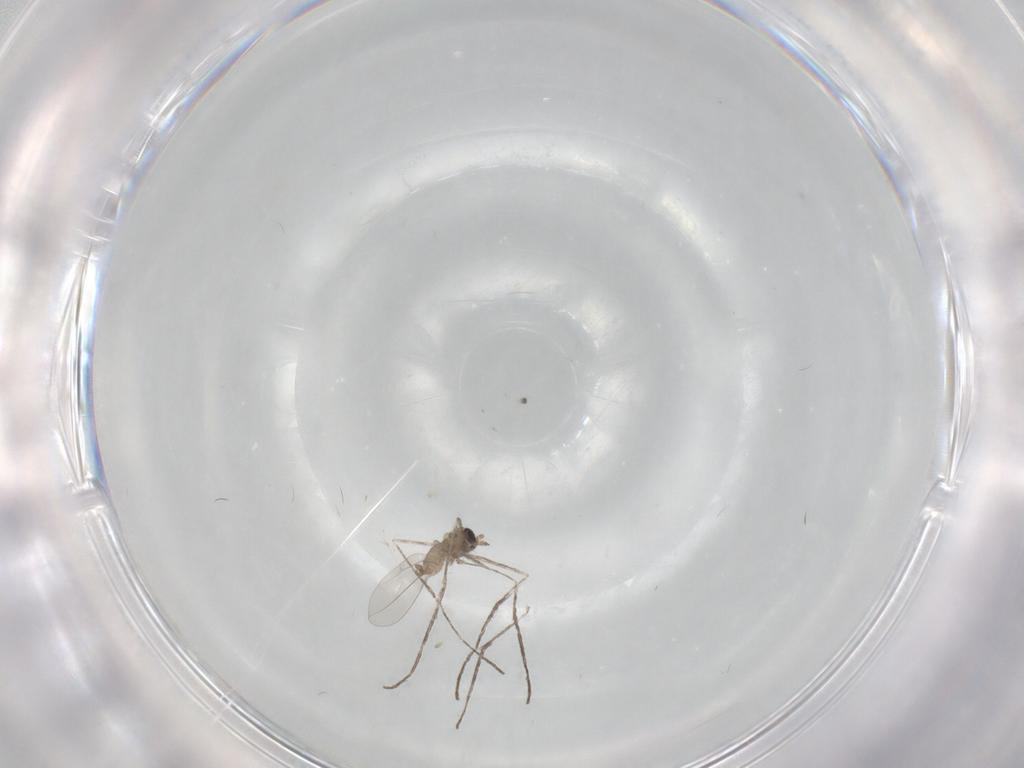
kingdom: Animalia
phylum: Arthropoda
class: Insecta
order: Diptera
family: Cecidomyiidae
